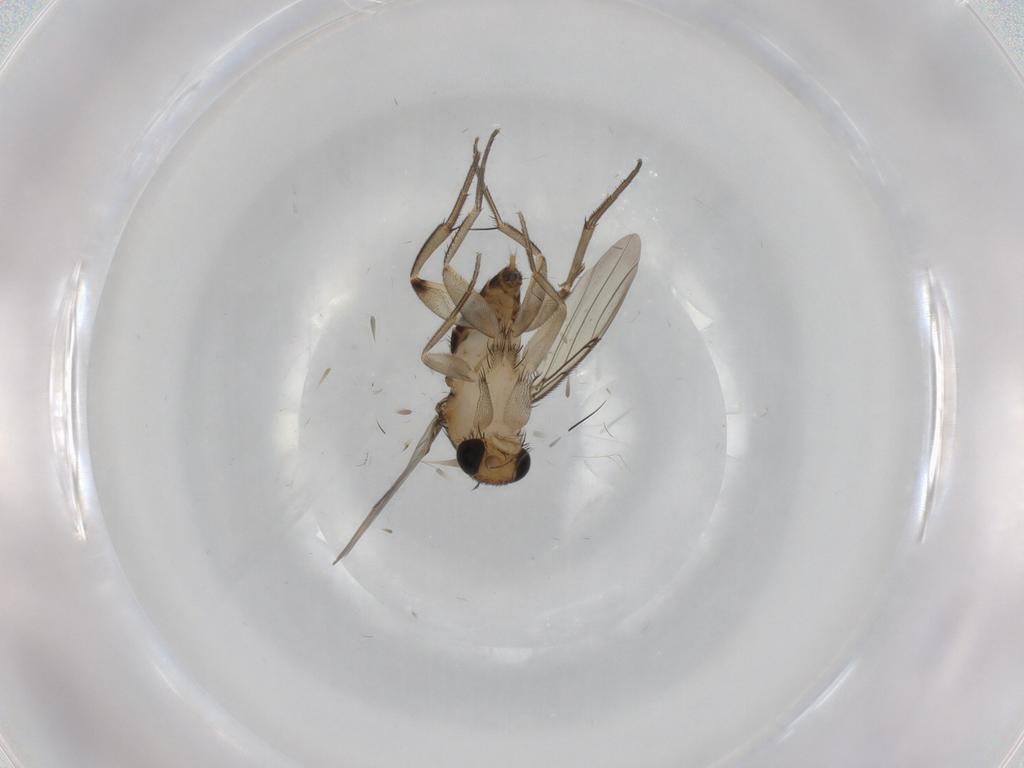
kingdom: Animalia
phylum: Arthropoda
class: Insecta
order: Diptera
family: Phoridae
